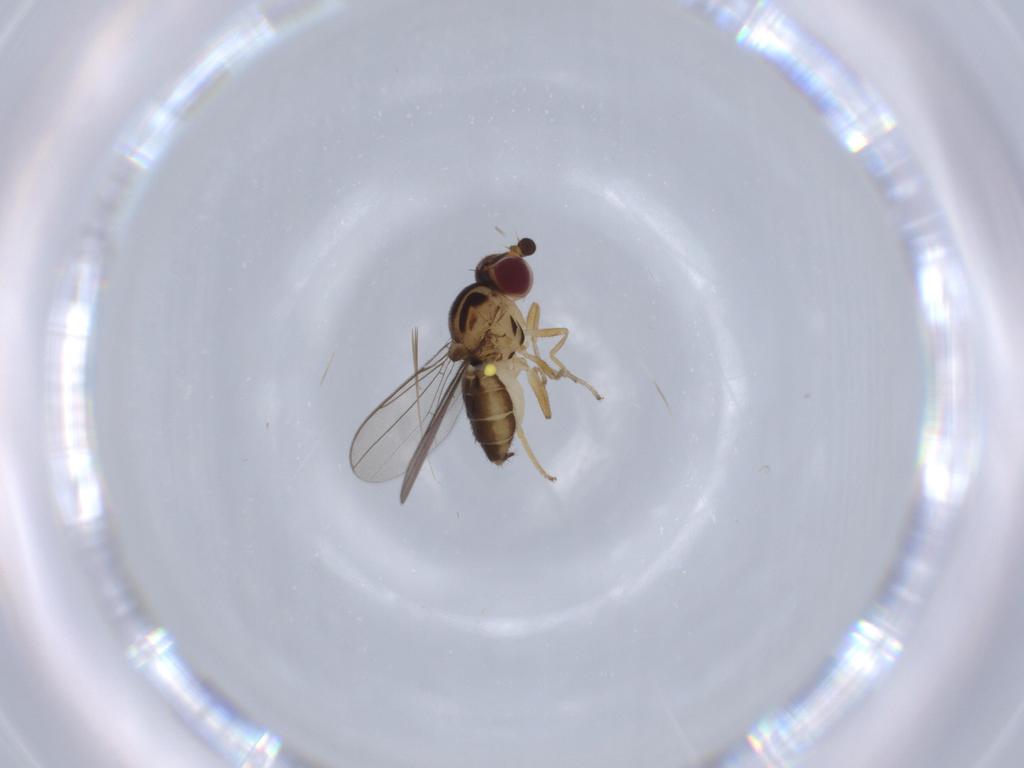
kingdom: Animalia
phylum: Arthropoda
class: Insecta
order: Diptera
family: Chloropidae
